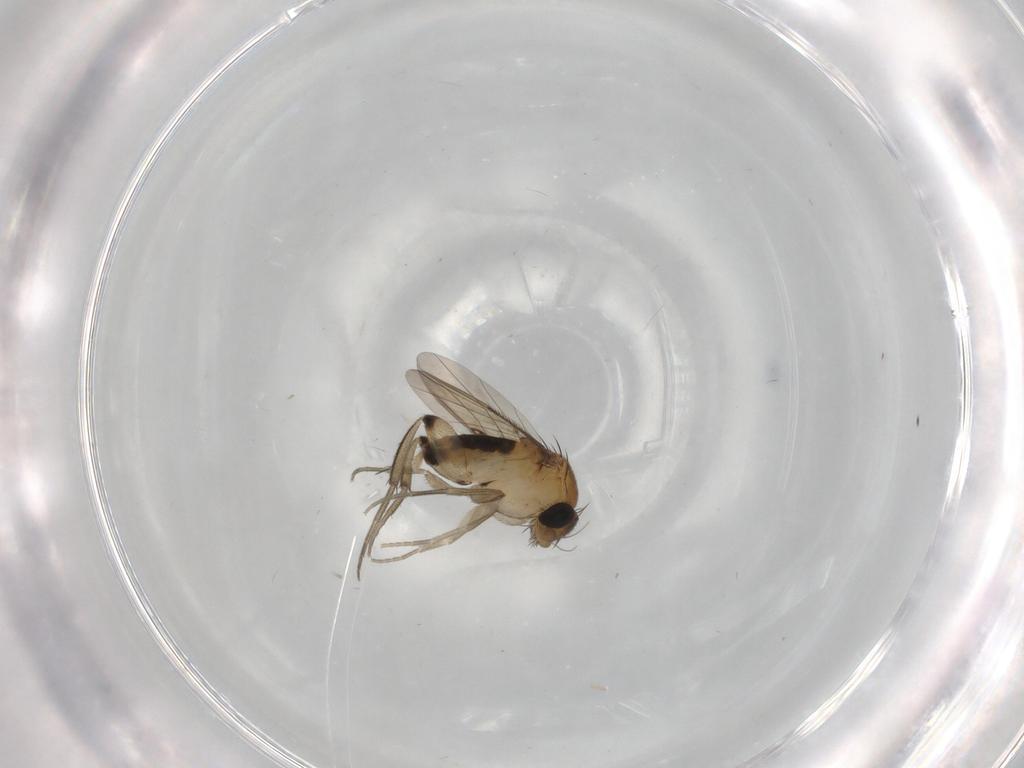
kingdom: Animalia
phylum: Arthropoda
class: Insecta
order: Diptera
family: Phoridae
